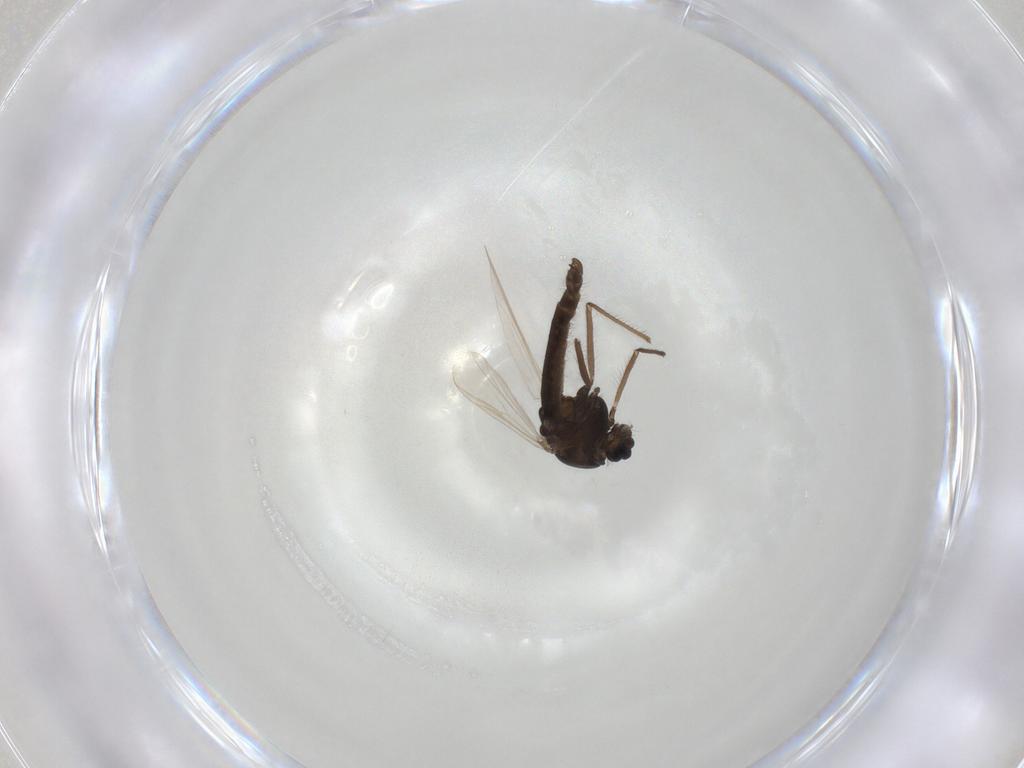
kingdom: Animalia
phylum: Arthropoda
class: Insecta
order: Diptera
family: Chironomidae
